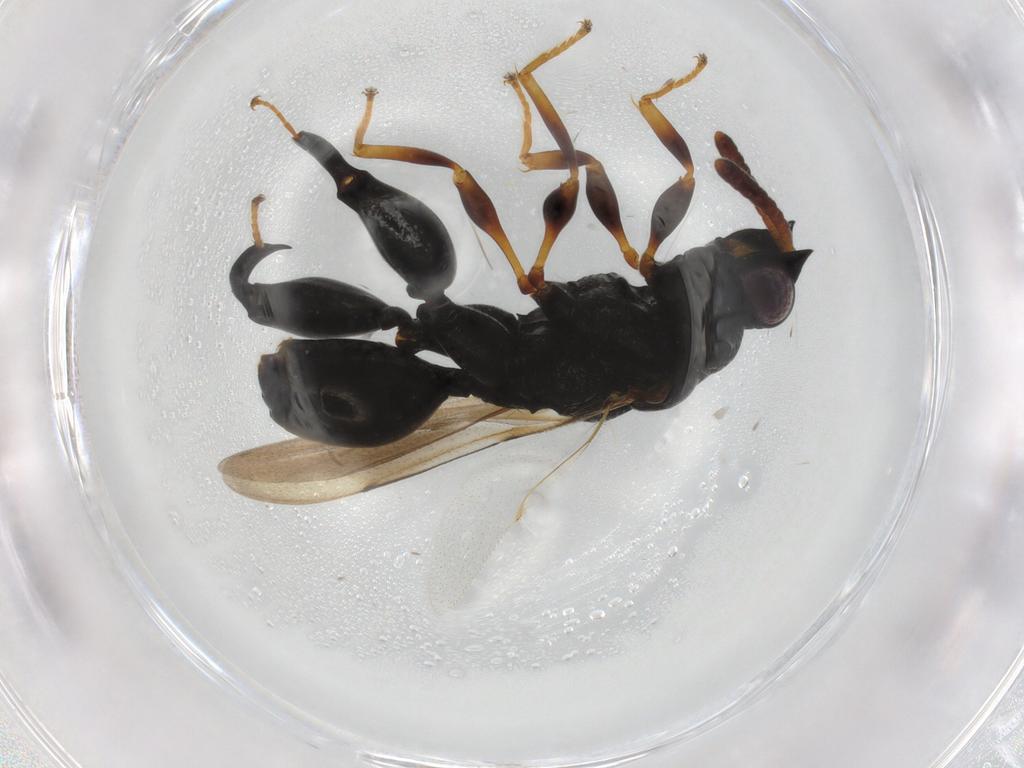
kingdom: Animalia
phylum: Arthropoda
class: Insecta
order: Hymenoptera
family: Chalcididae
